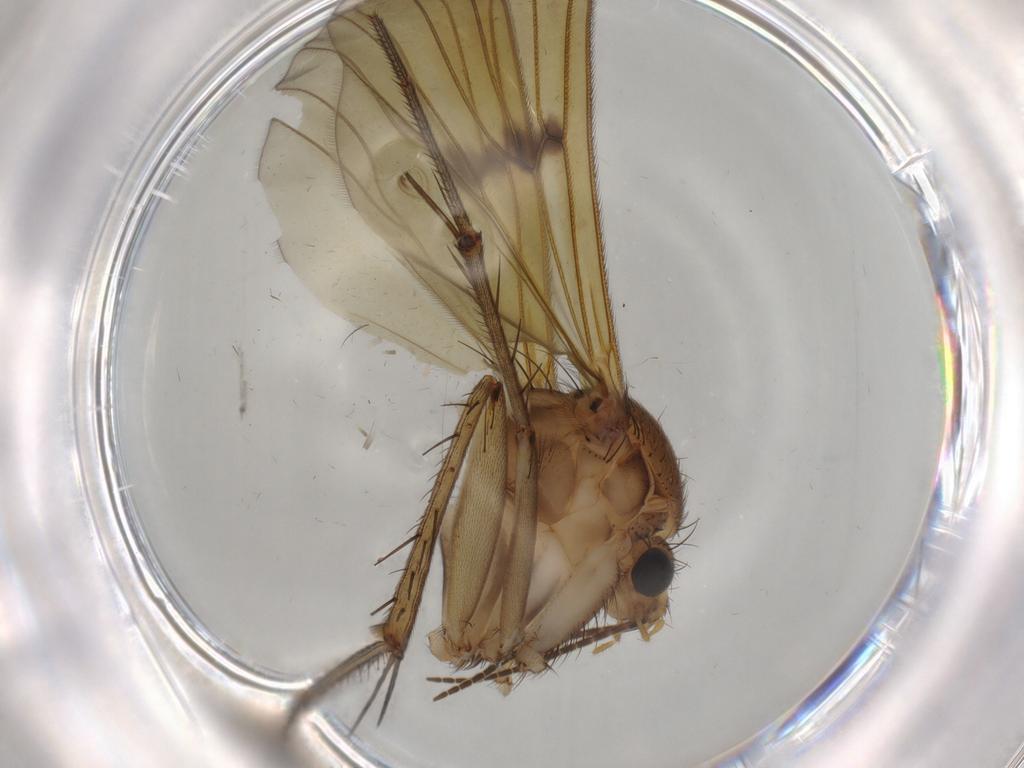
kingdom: Animalia
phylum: Arthropoda
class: Insecta
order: Diptera
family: Mycetophilidae
